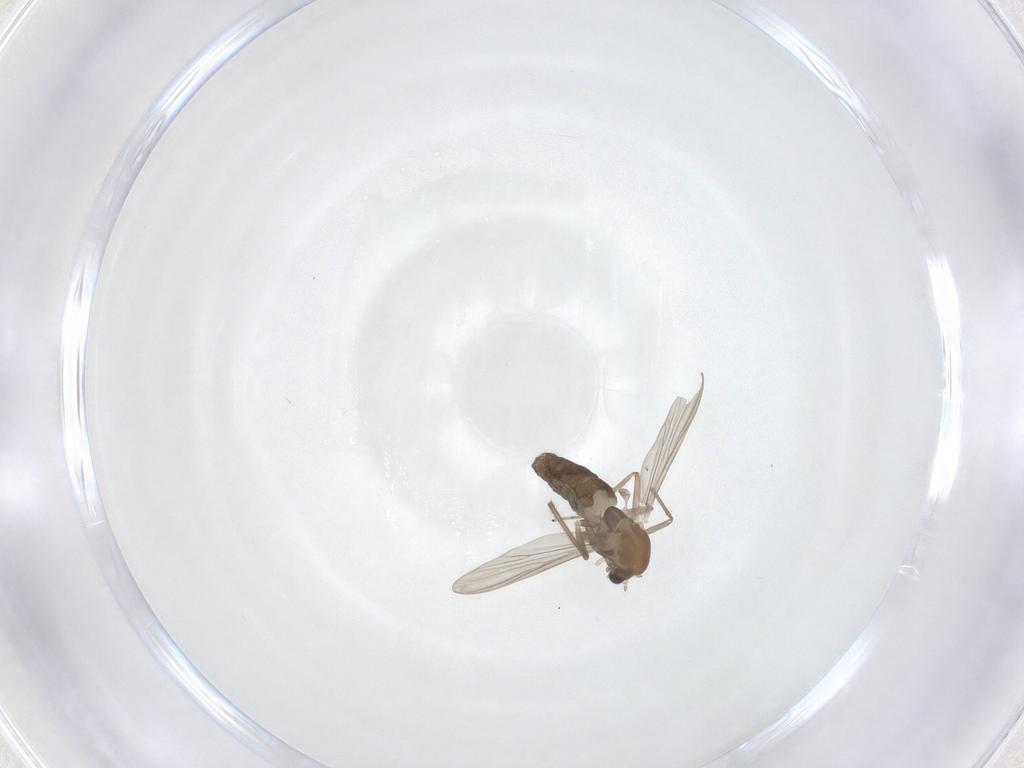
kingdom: Animalia
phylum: Arthropoda
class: Insecta
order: Diptera
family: Chironomidae
